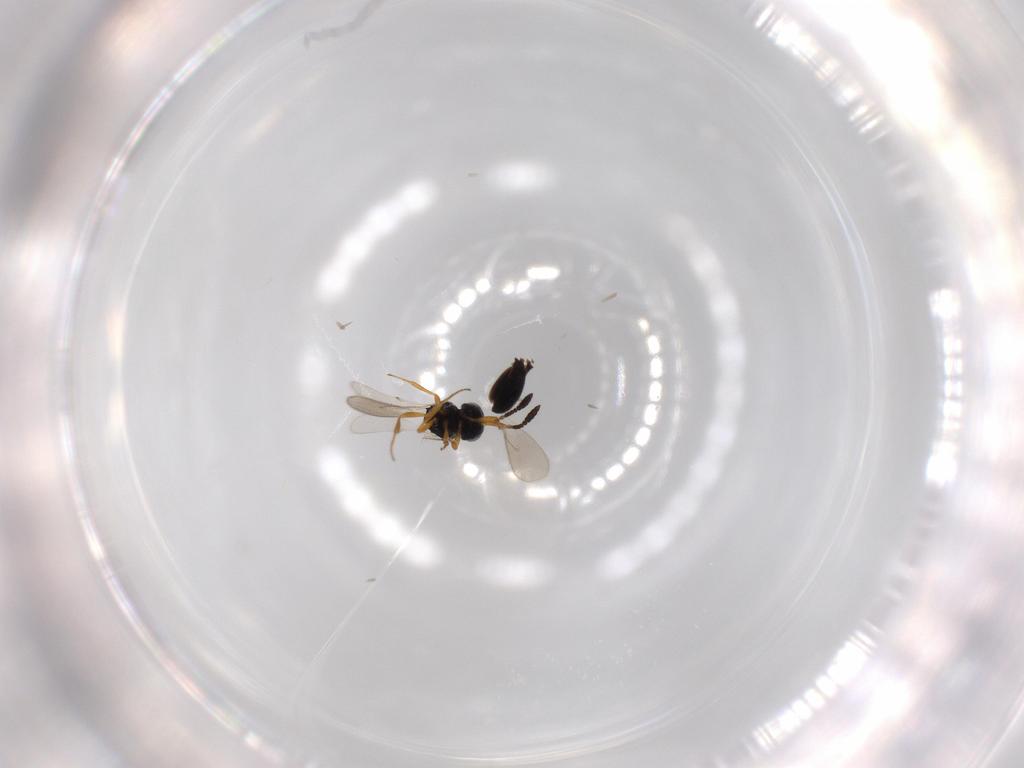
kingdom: Animalia
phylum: Arthropoda
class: Insecta
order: Hymenoptera
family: Scelionidae
